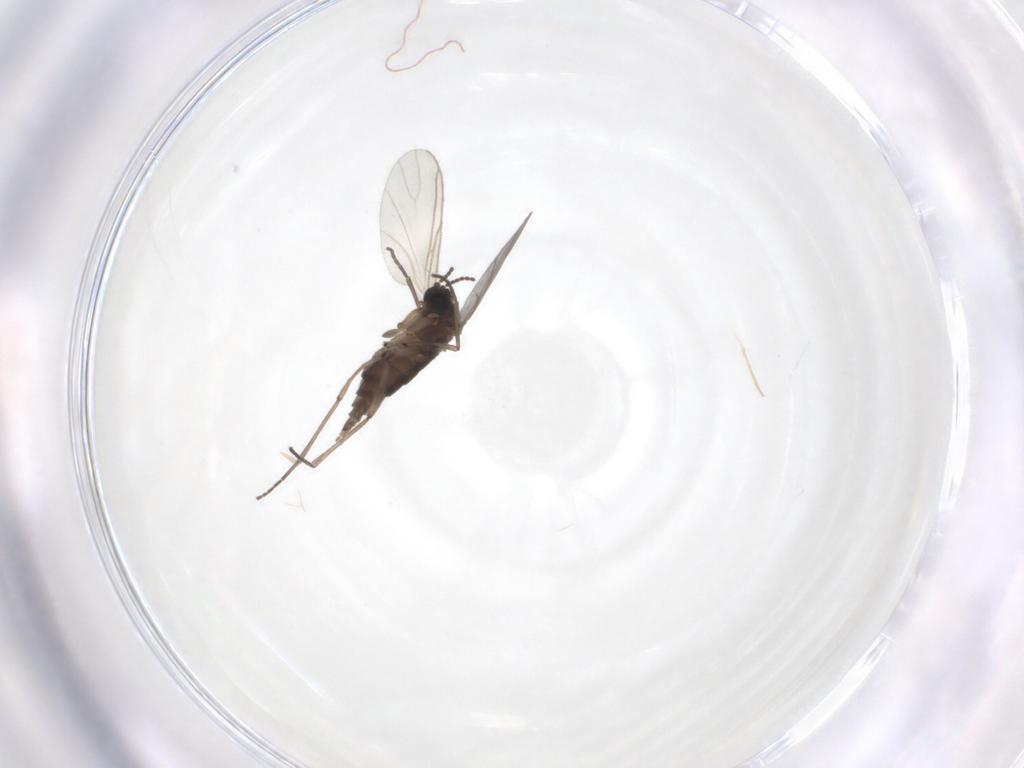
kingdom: Animalia
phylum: Arthropoda
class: Insecta
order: Diptera
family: Sciaridae
